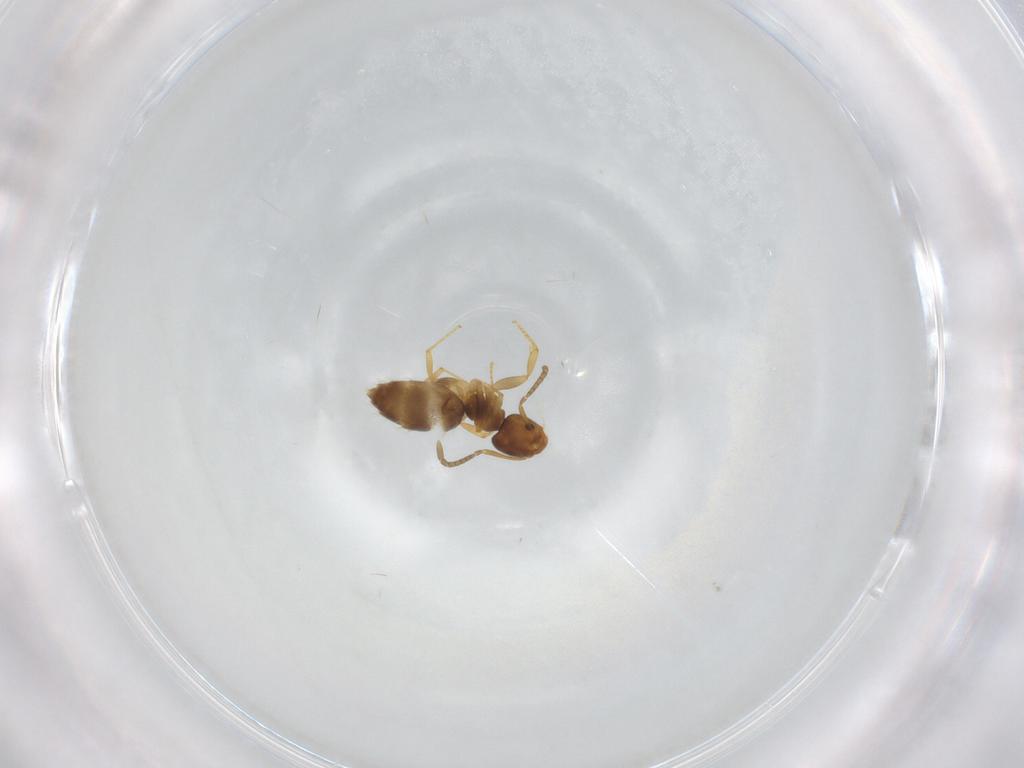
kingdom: Animalia
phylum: Arthropoda
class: Insecta
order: Hymenoptera
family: Formicidae
